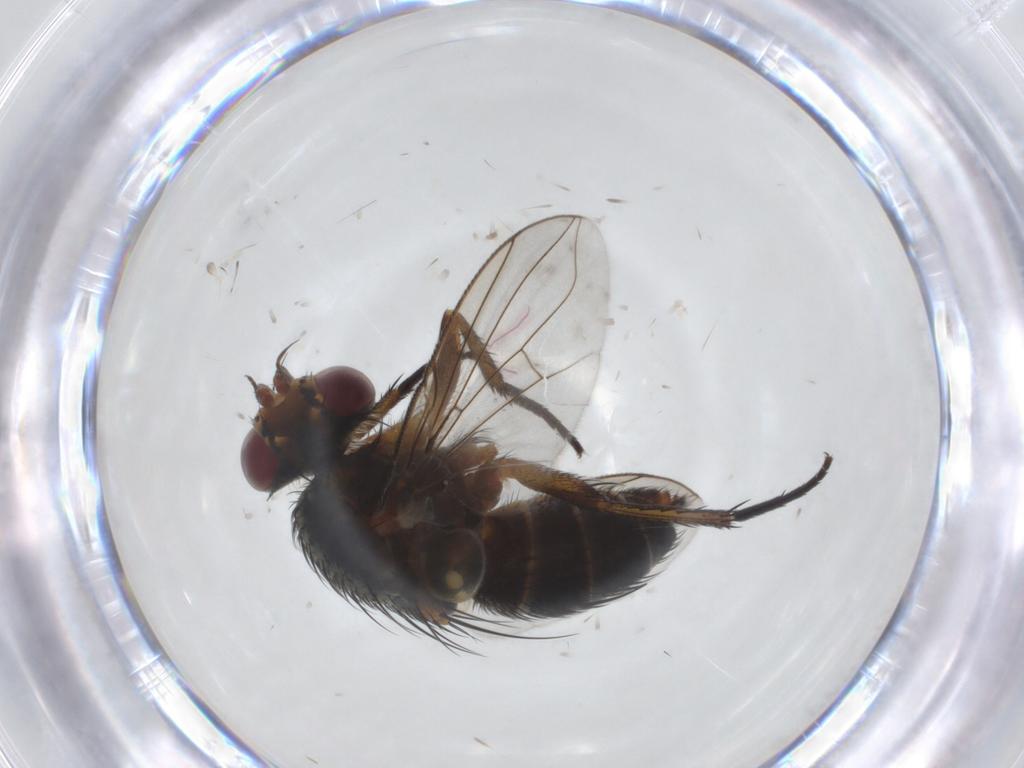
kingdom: Animalia
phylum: Arthropoda
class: Insecta
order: Diptera
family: Tachinidae
